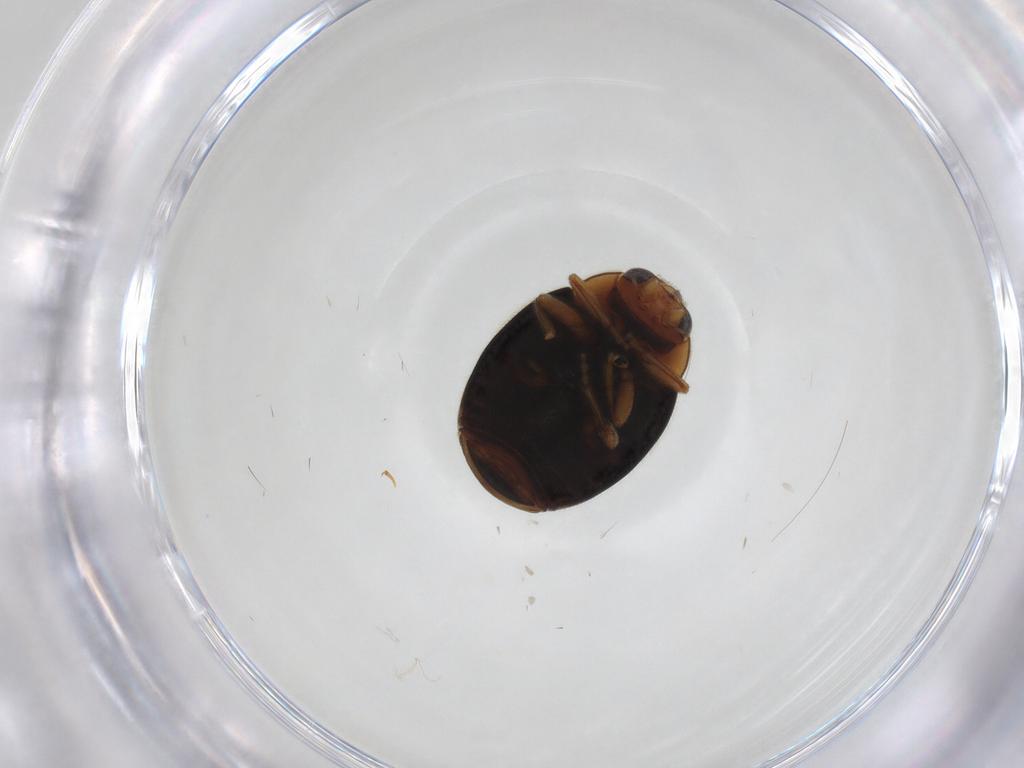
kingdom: Animalia
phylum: Arthropoda
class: Insecta
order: Coleoptera
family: Coccinellidae
